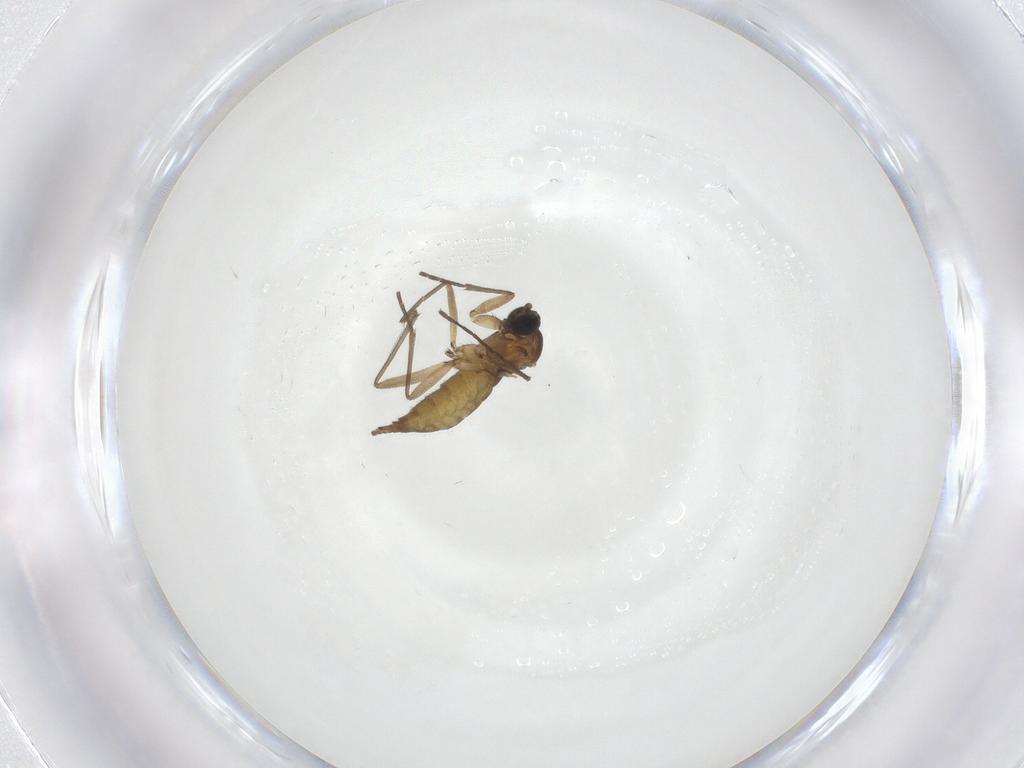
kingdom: Animalia
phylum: Arthropoda
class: Insecta
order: Diptera
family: Sciaridae
